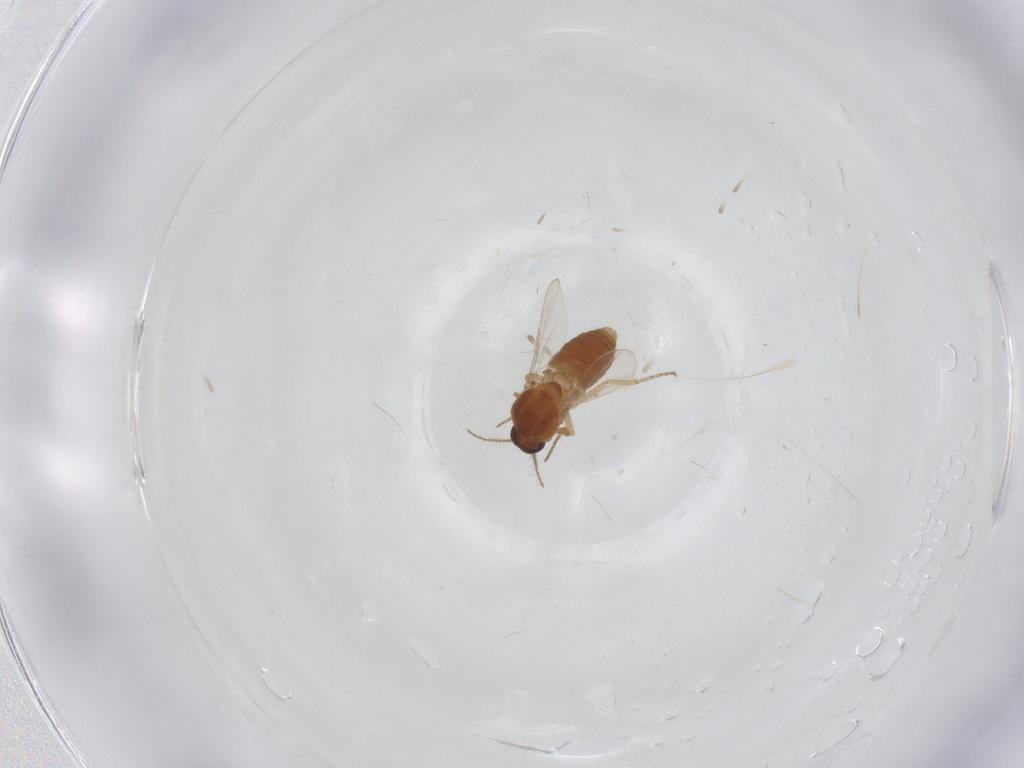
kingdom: Animalia
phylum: Arthropoda
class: Insecta
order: Diptera
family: Ceratopogonidae
